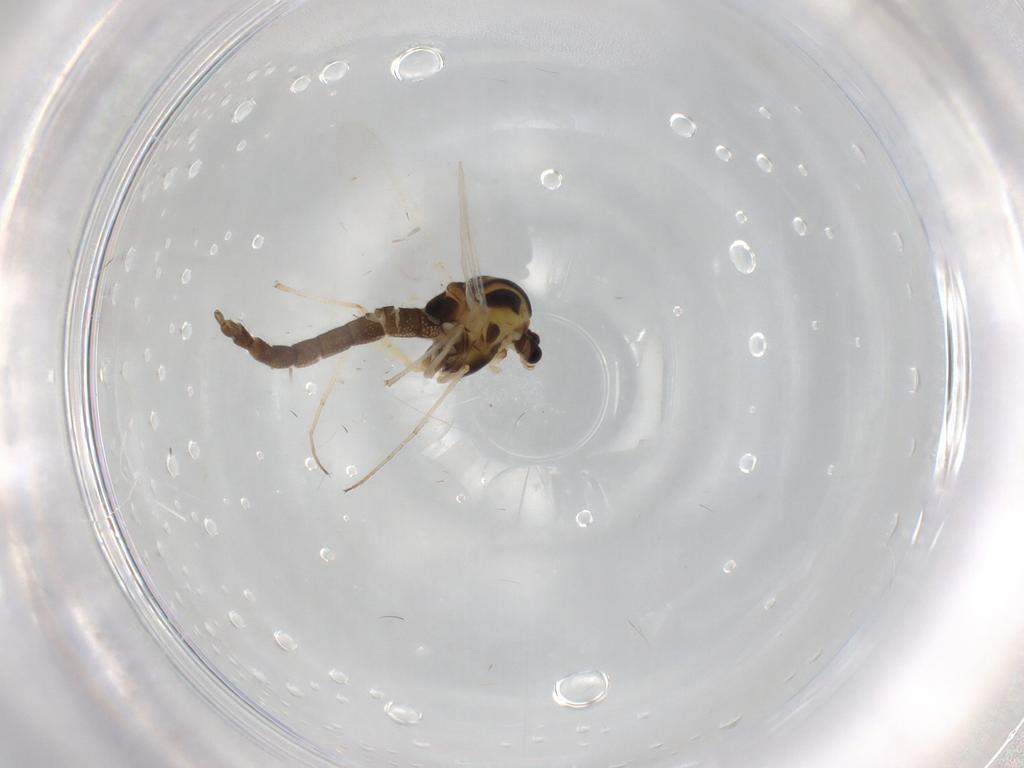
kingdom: Animalia
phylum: Arthropoda
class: Insecta
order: Diptera
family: Cecidomyiidae
